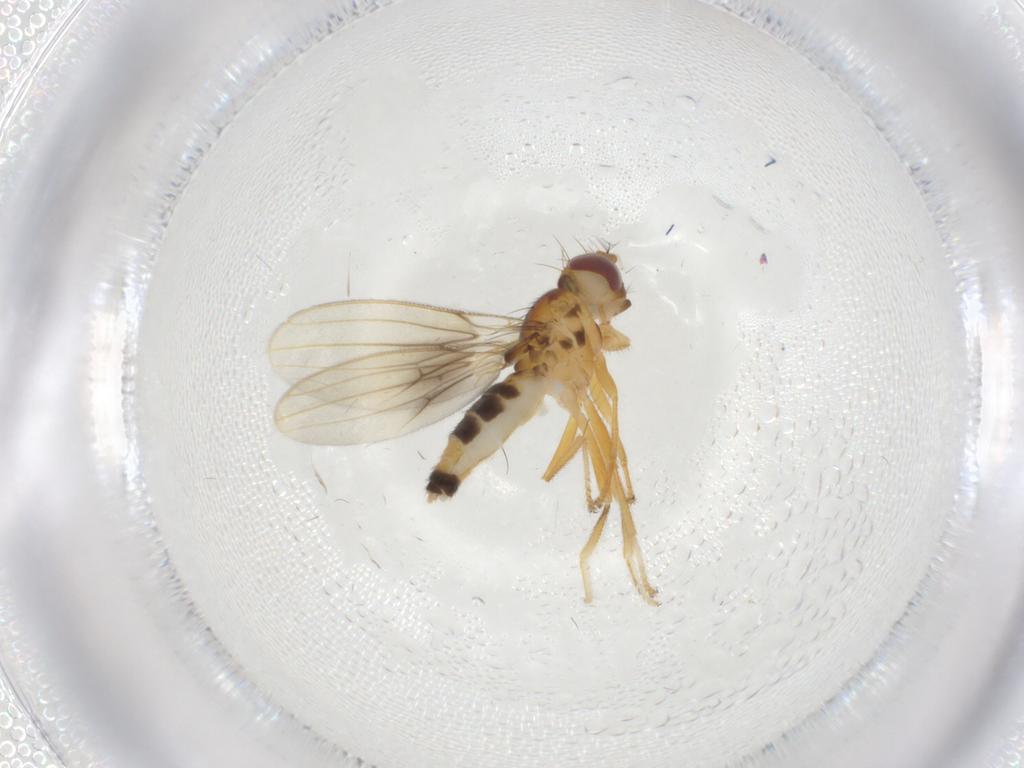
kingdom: Animalia
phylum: Arthropoda
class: Insecta
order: Diptera
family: Periscelididae
